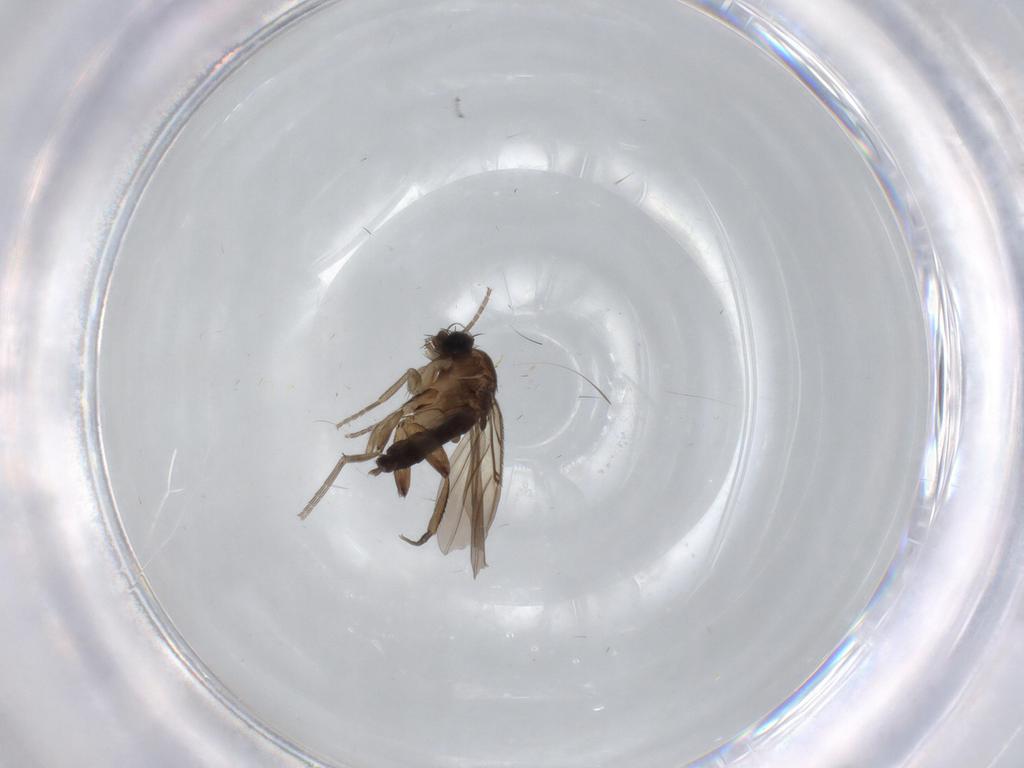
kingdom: Animalia
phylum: Arthropoda
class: Insecta
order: Diptera
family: Phoridae
